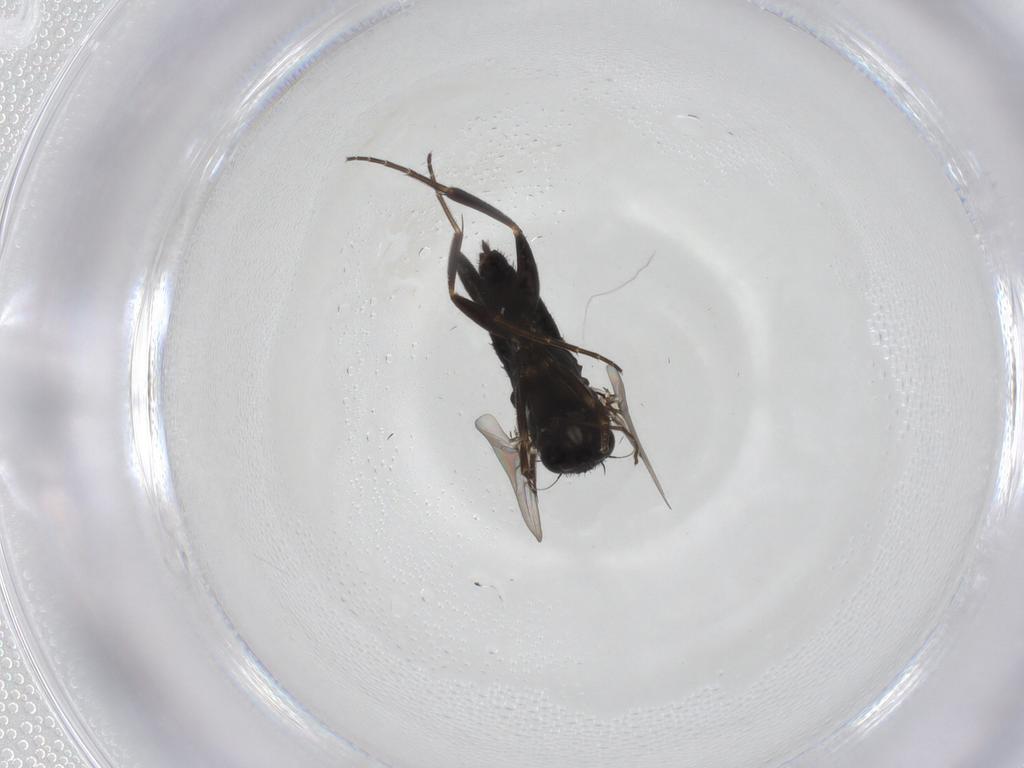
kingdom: Animalia
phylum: Arthropoda
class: Insecta
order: Diptera
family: Phoridae
